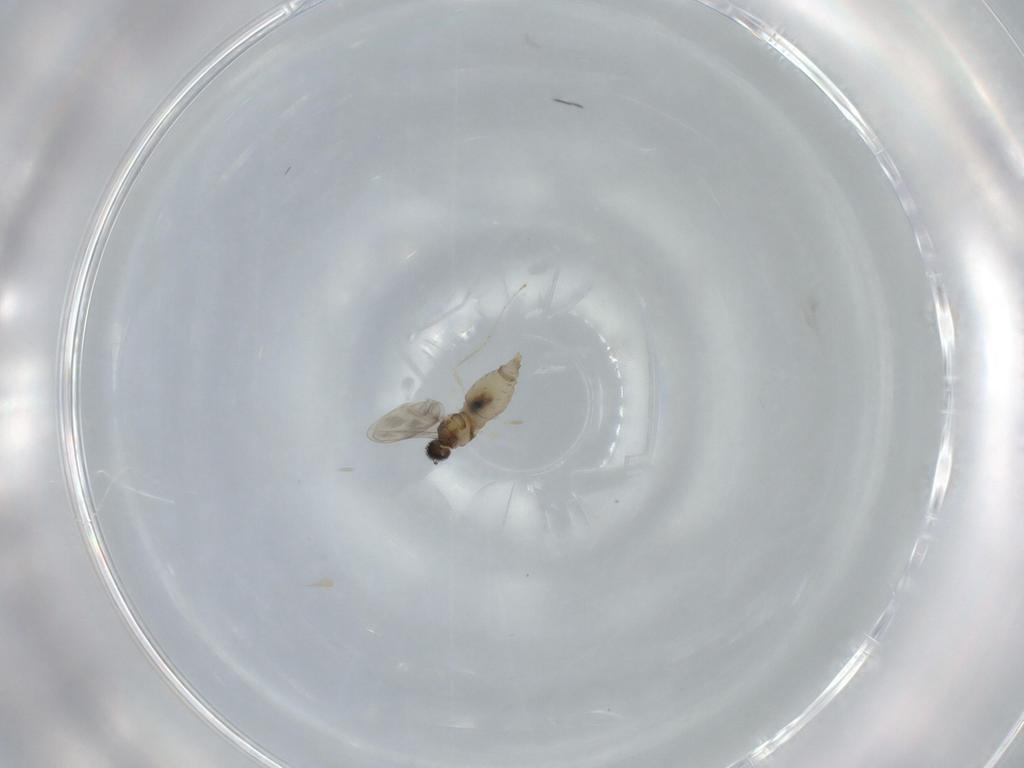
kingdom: Animalia
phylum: Arthropoda
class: Insecta
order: Diptera
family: Cecidomyiidae
